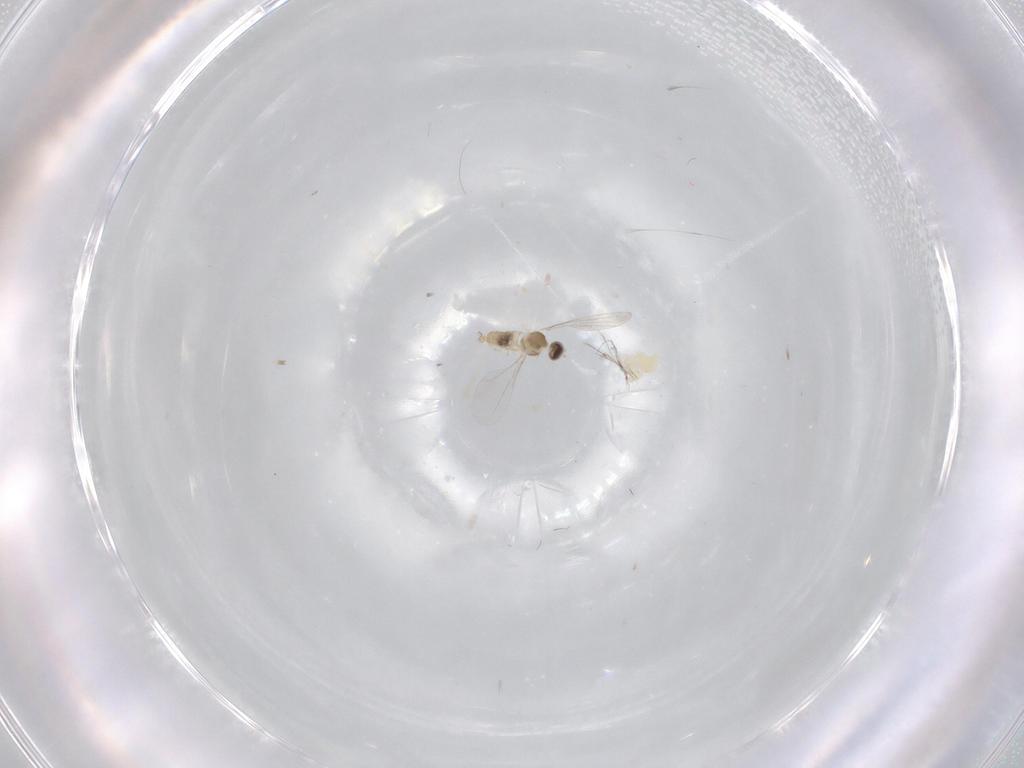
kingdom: Animalia
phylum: Arthropoda
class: Insecta
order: Diptera
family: Cecidomyiidae
